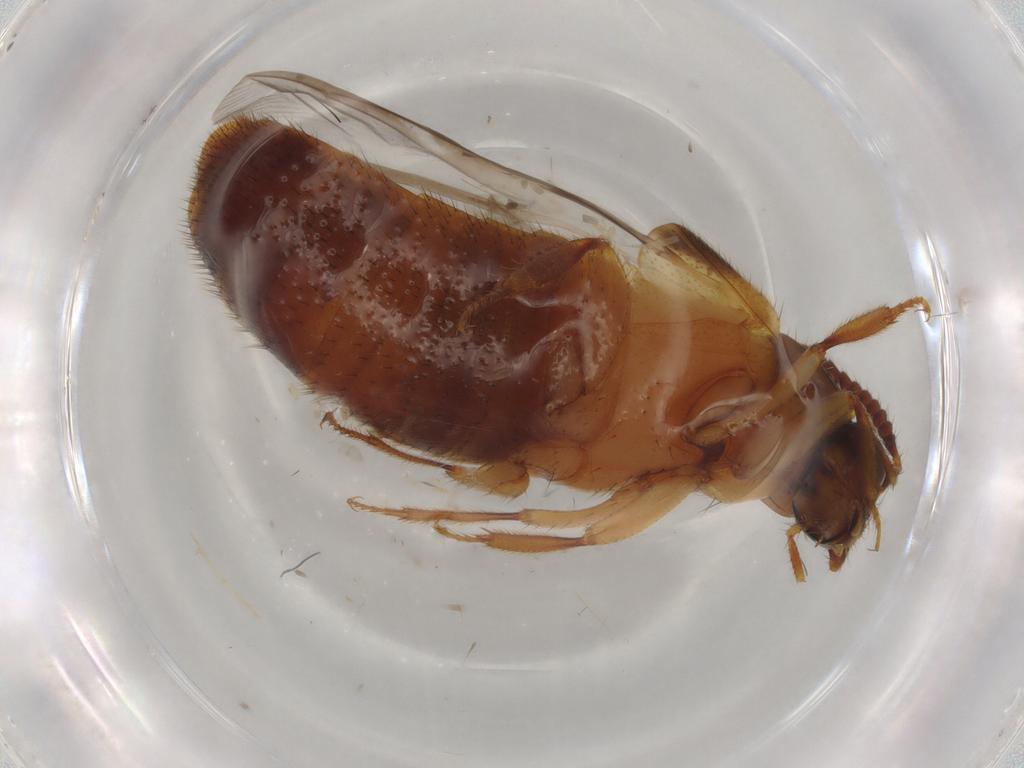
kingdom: Animalia
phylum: Arthropoda
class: Insecta
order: Coleoptera
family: Staphylinidae
